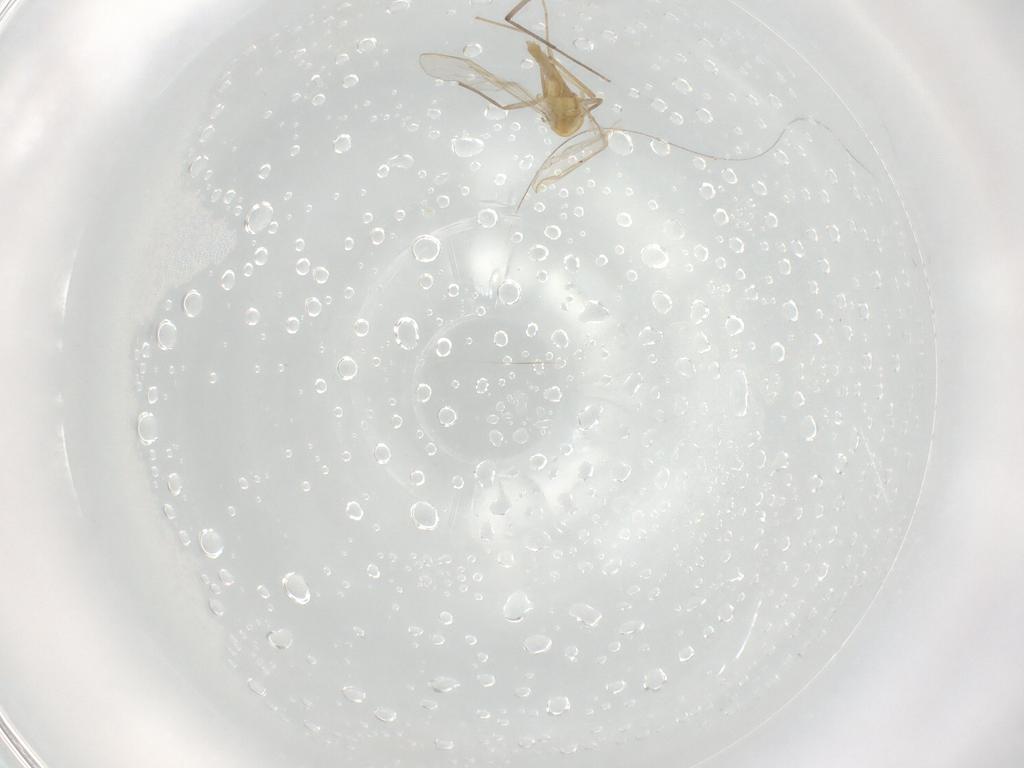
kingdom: Animalia
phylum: Arthropoda
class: Insecta
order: Diptera
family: Chironomidae
